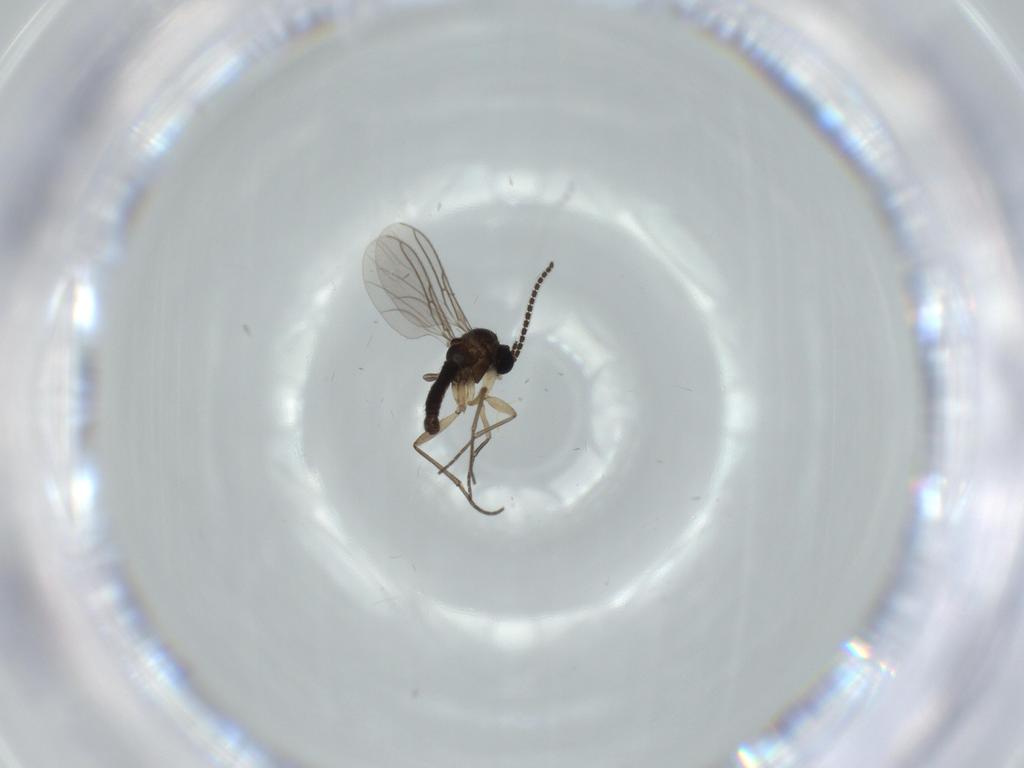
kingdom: Animalia
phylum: Arthropoda
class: Insecta
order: Diptera
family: Sciaridae
